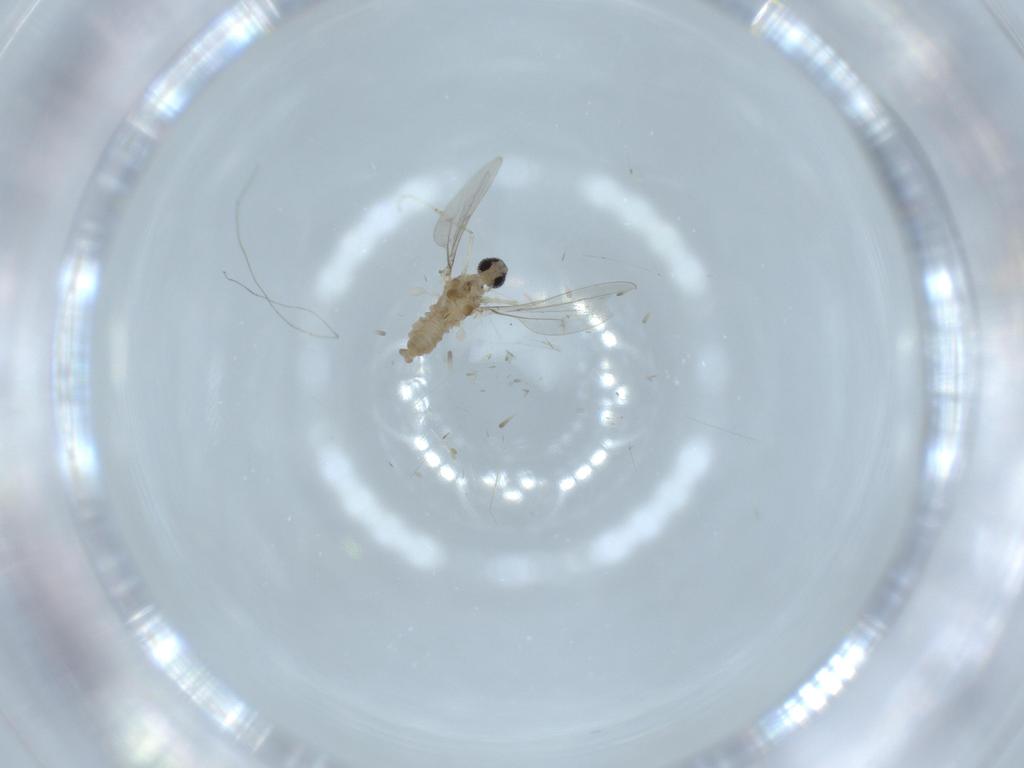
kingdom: Animalia
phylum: Arthropoda
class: Insecta
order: Diptera
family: Cecidomyiidae
